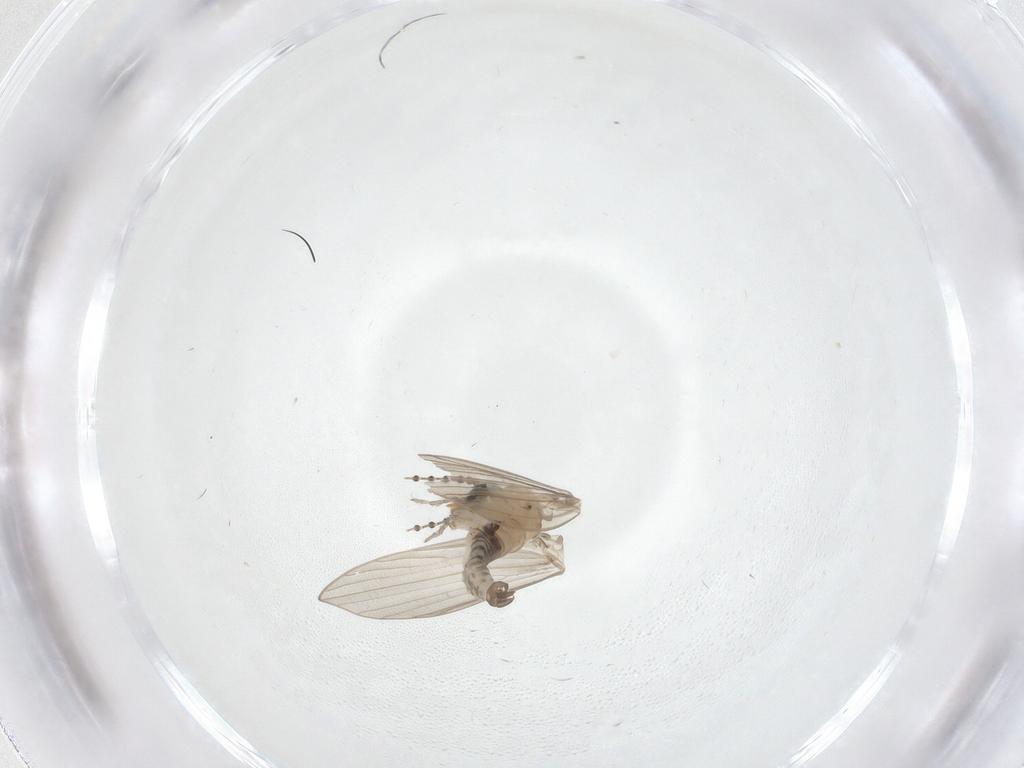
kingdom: Animalia
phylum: Arthropoda
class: Insecta
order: Diptera
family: Psychodidae
